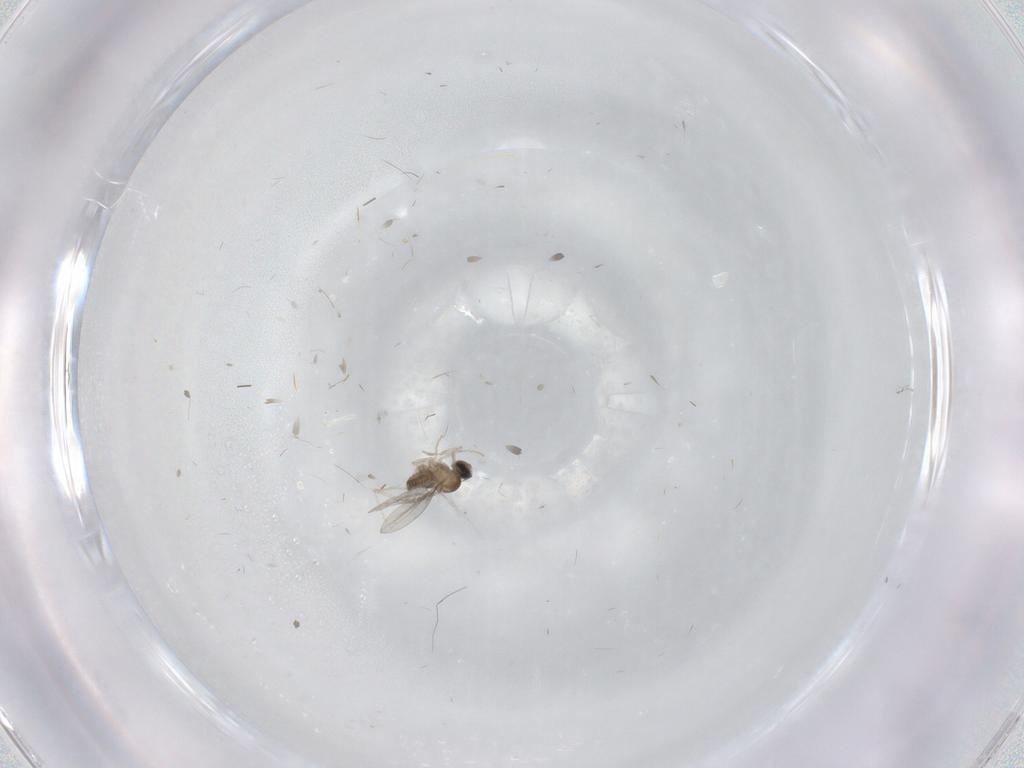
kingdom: Animalia
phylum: Arthropoda
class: Insecta
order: Diptera
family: Cecidomyiidae
